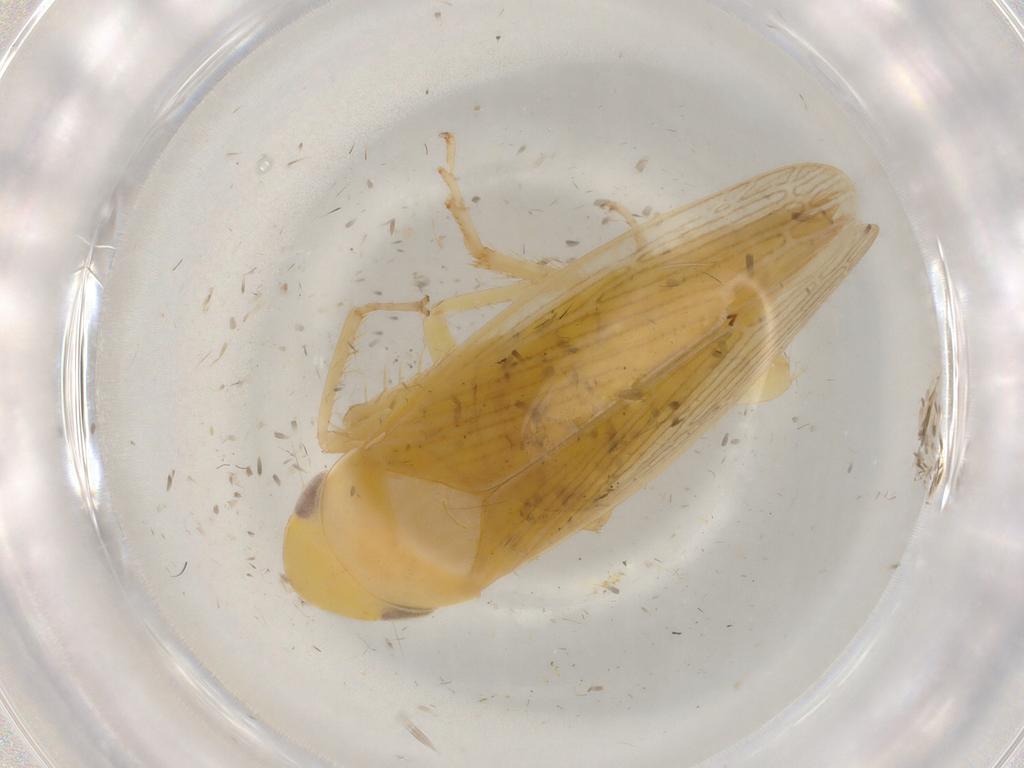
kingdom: Animalia
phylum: Arthropoda
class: Insecta
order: Hemiptera
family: Cicadellidae
